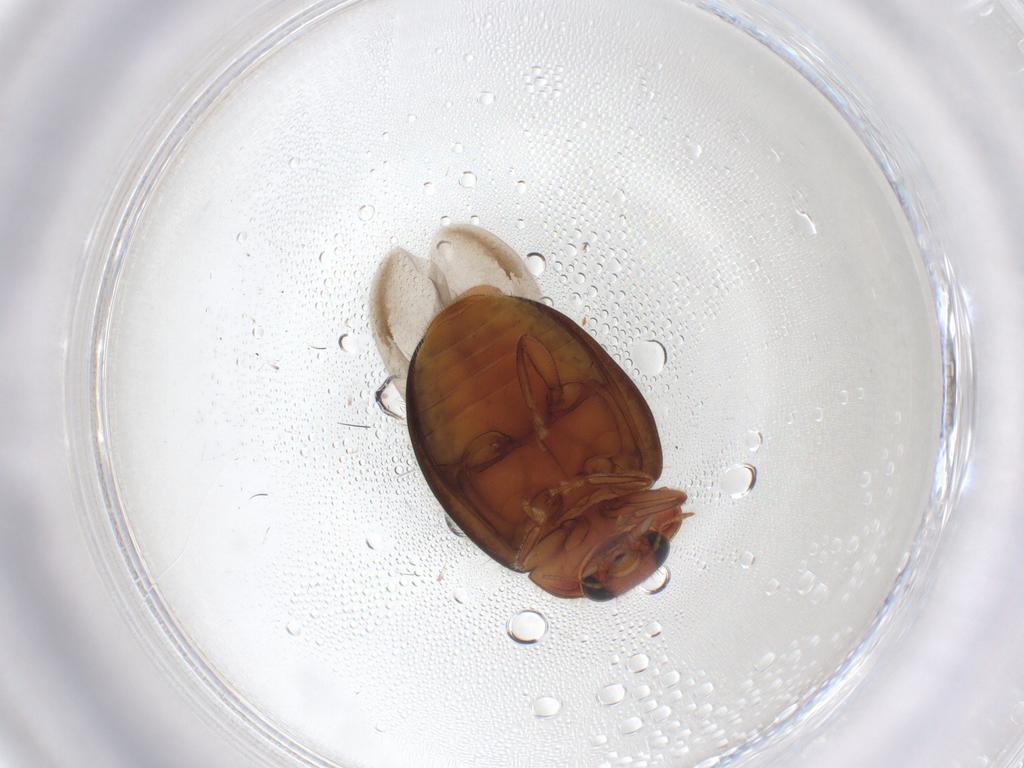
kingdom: Animalia
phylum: Arthropoda
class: Insecta
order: Coleoptera
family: Coccinellidae
